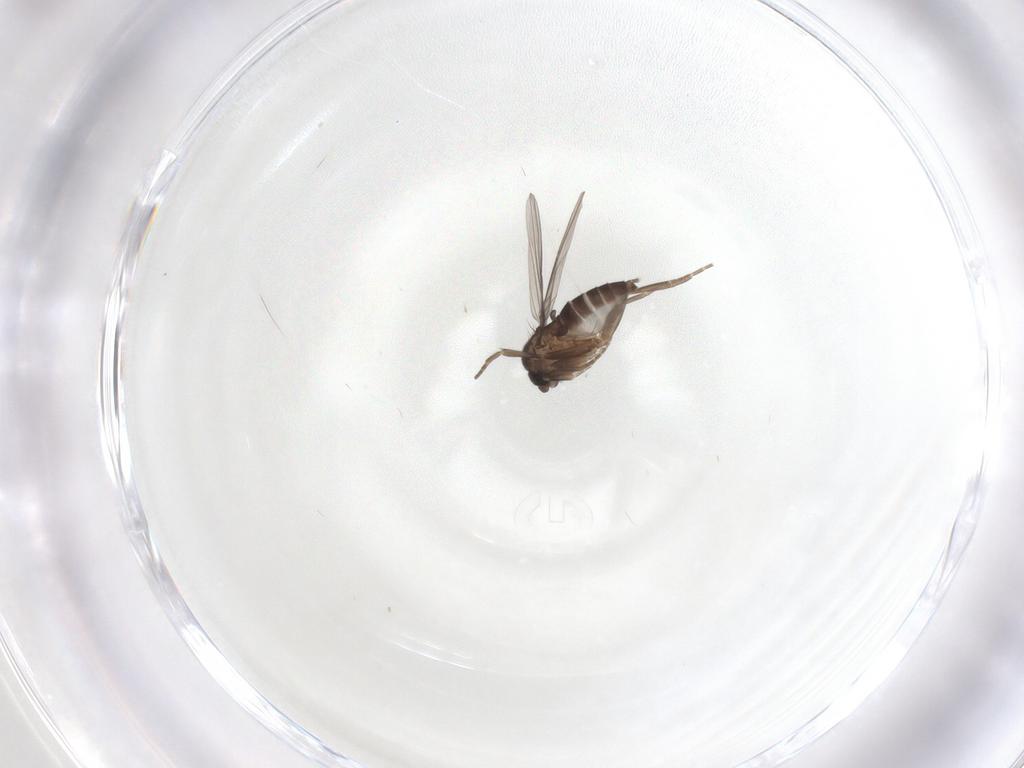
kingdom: Animalia
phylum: Arthropoda
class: Insecta
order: Diptera
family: Phoridae
